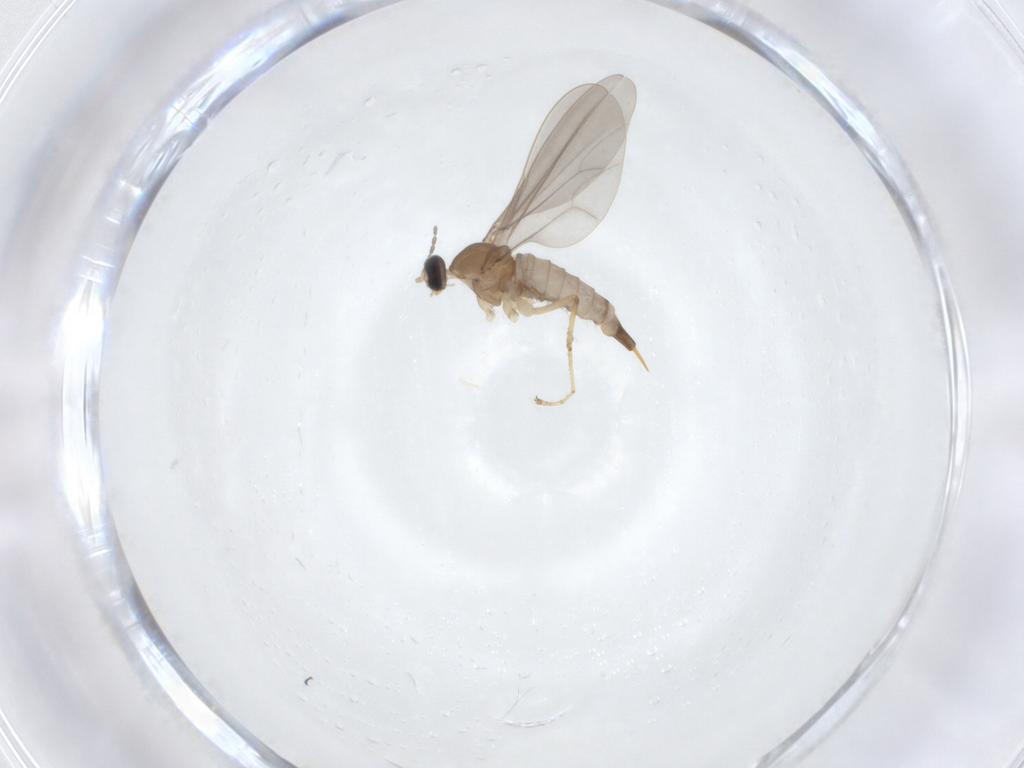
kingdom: Animalia
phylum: Arthropoda
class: Insecta
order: Diptera
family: Cecidomyiidae
